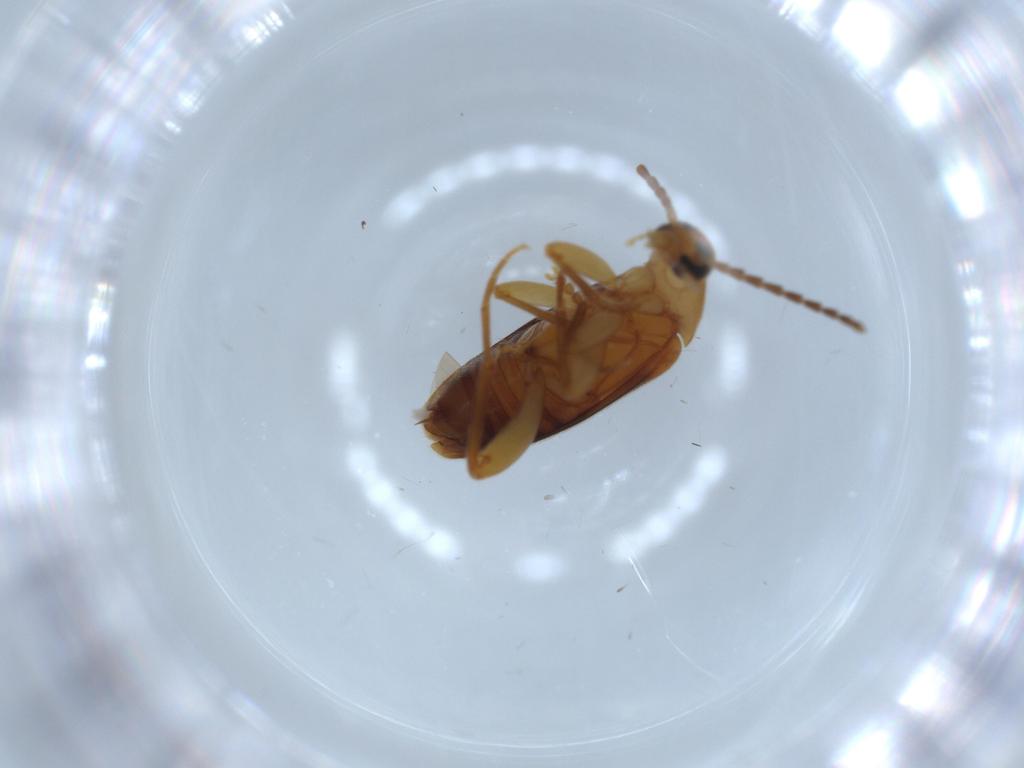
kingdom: Animalia
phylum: Arthropoda
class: Insecta
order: Coleoptera
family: Scraptiidae
